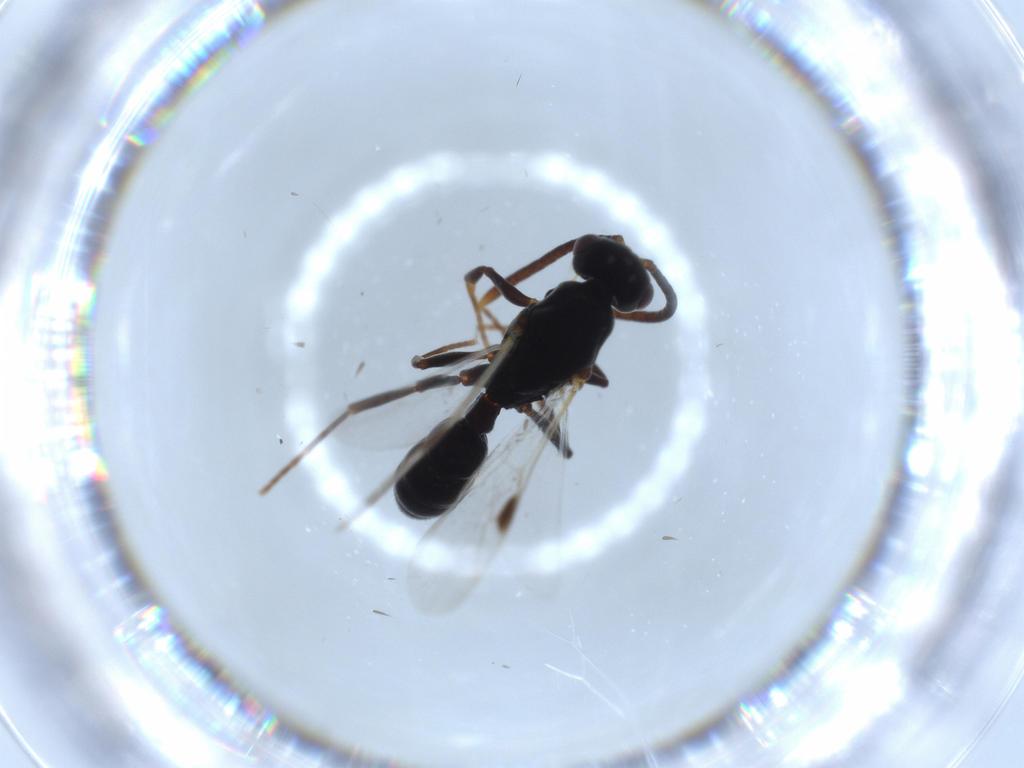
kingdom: Animalia
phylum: Arthropoda
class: Insecta
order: Hymenoptera
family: Formicidae
